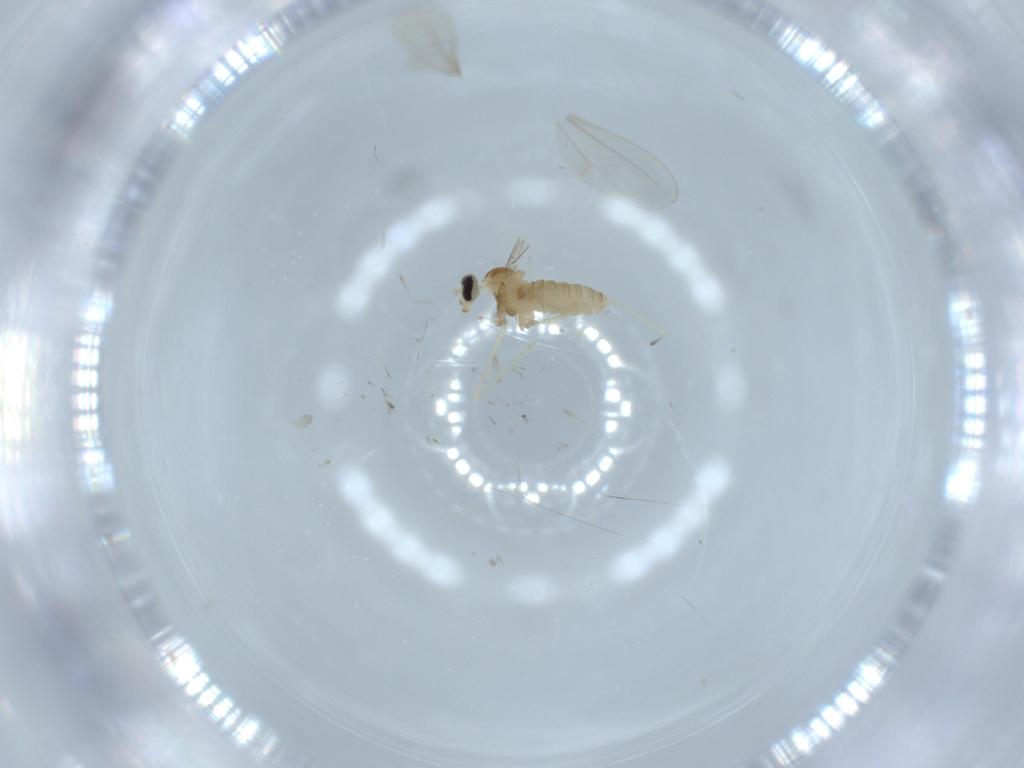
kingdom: Animalia
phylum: Arthropoda
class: Insecta
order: Diptera
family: Cecidomyiidae
